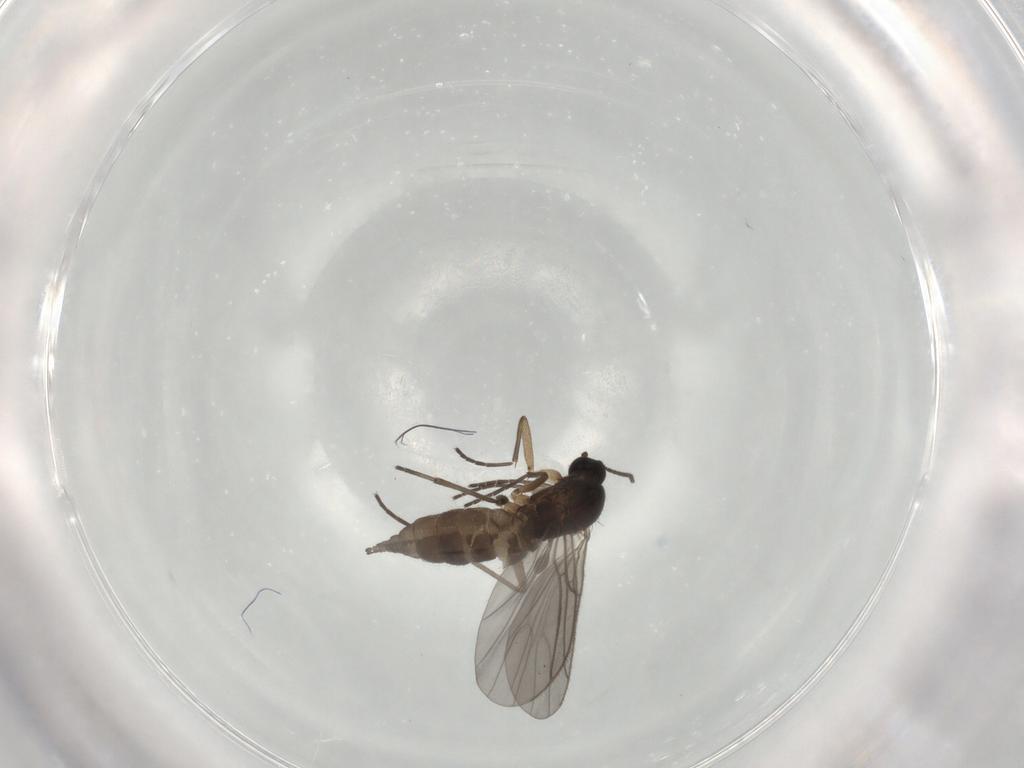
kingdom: Animalia
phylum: Arthropoda
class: Insecta
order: Diptera
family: Sciaridae
